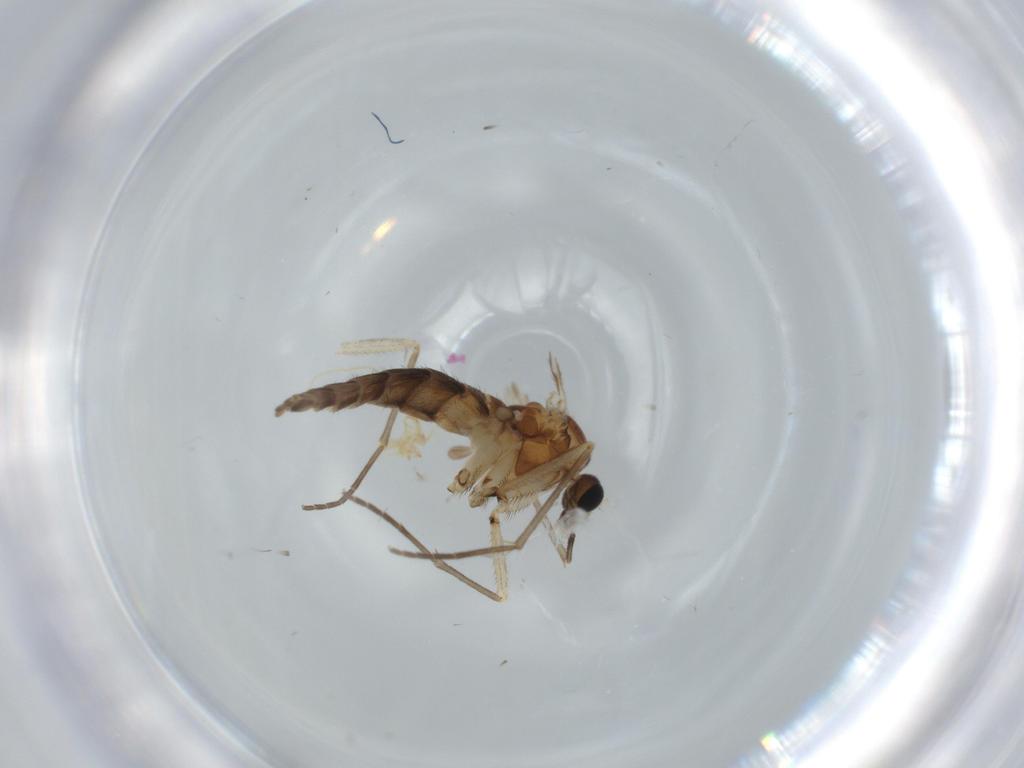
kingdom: Animalia
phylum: Arthropoda
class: Insecta
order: Diptera
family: Sciaridae
